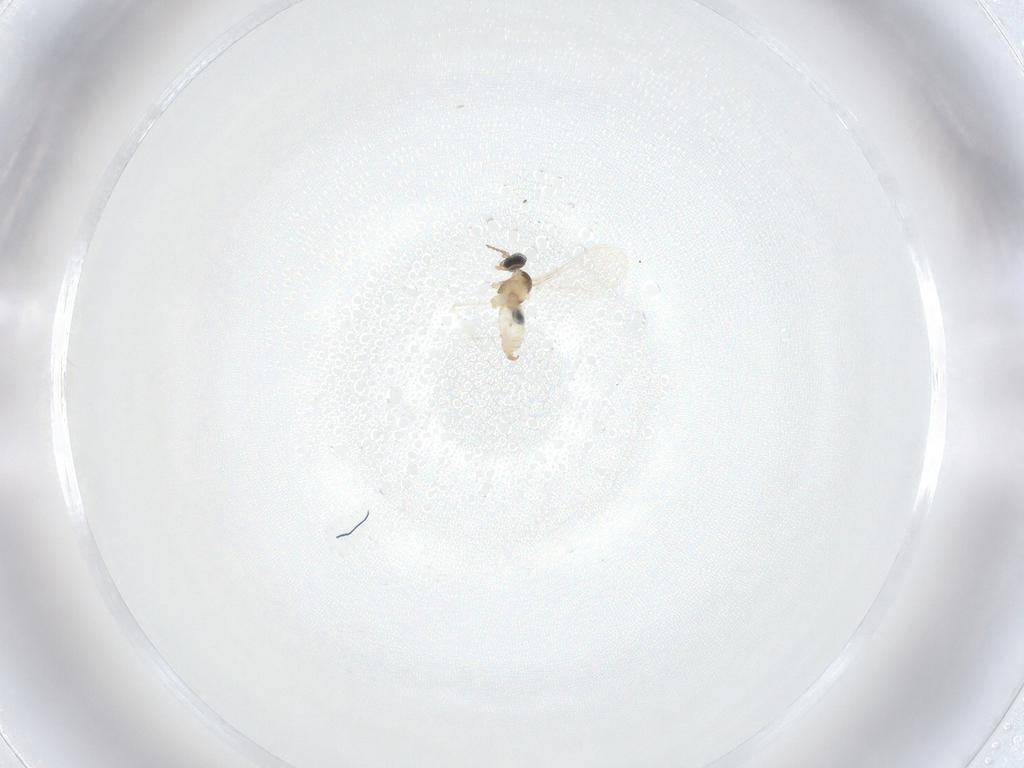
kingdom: Animalia
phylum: Arthropoda
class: Insecta
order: Diptera
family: Cecidomyiidae
